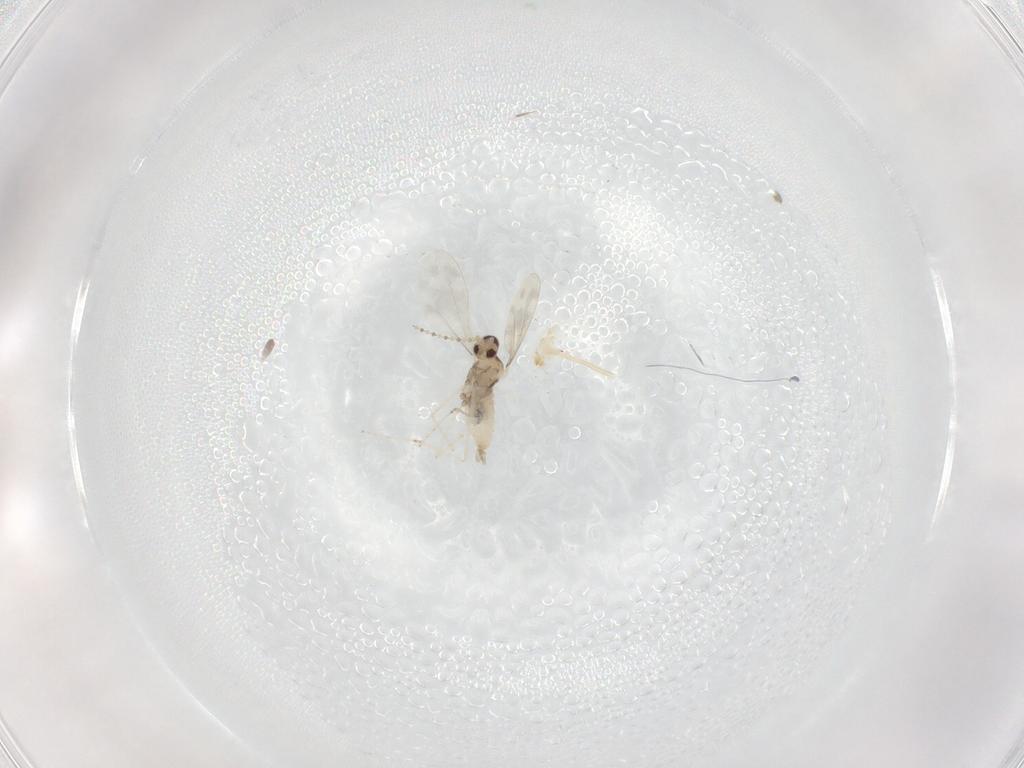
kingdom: Animalia
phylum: Arthropoda
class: Insecta
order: Diptera
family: Cecidomyiidae
